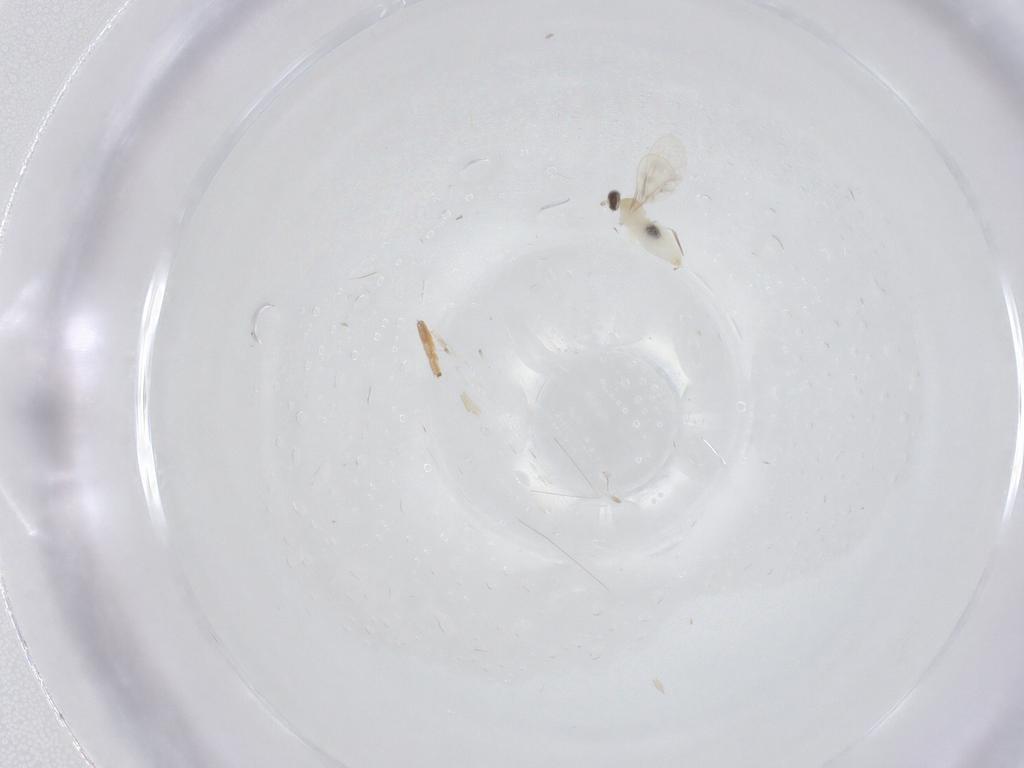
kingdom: Animalia
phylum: Arthropoda
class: Insecta
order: Diptera
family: Cecidomyiidae
